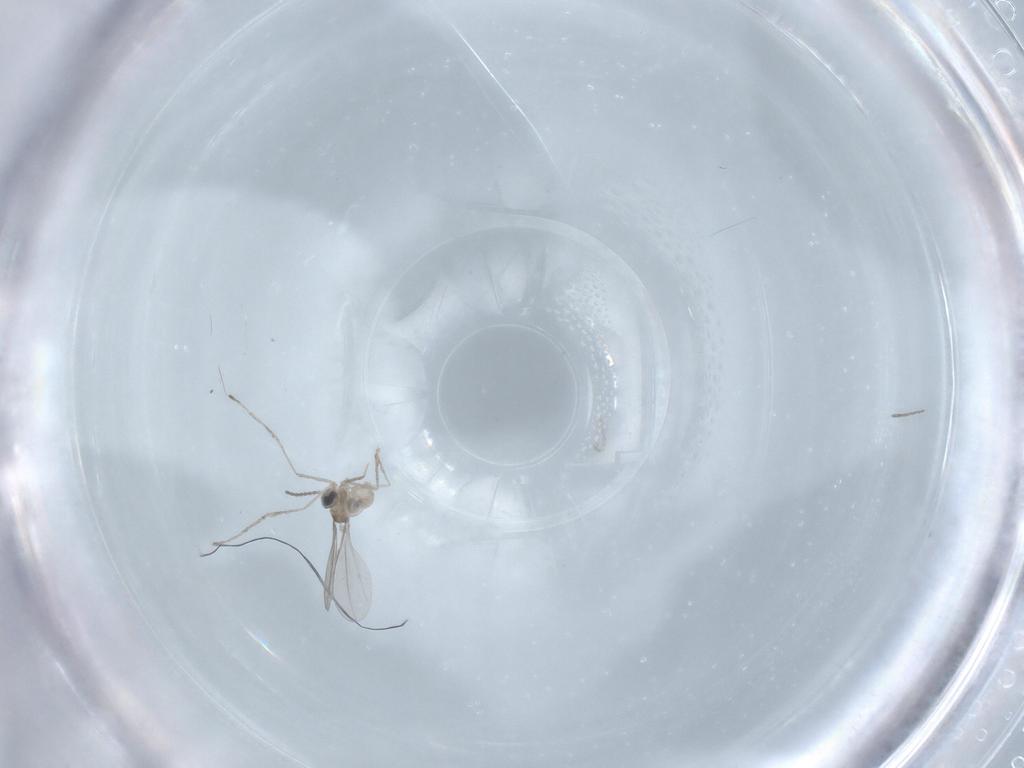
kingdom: Animalia
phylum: Arthropoda
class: Insecta
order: Diptera
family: Cecidomyiidae
